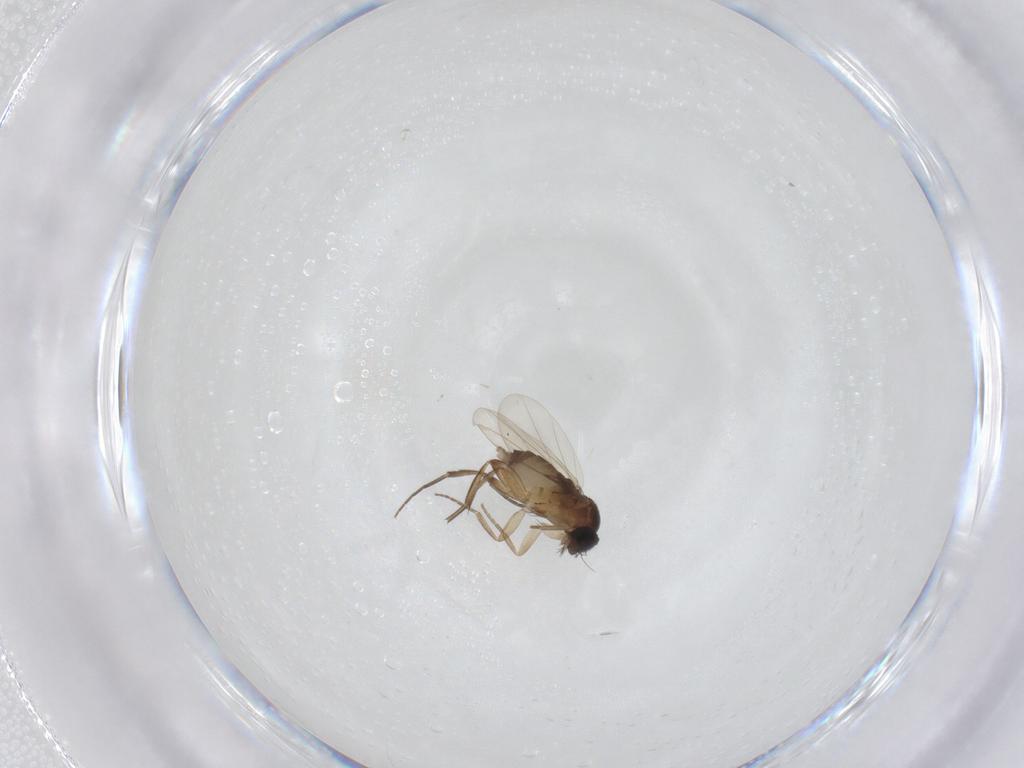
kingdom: Animalia
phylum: Arthropoda
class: Insecta
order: Diptera
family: Phoridae
